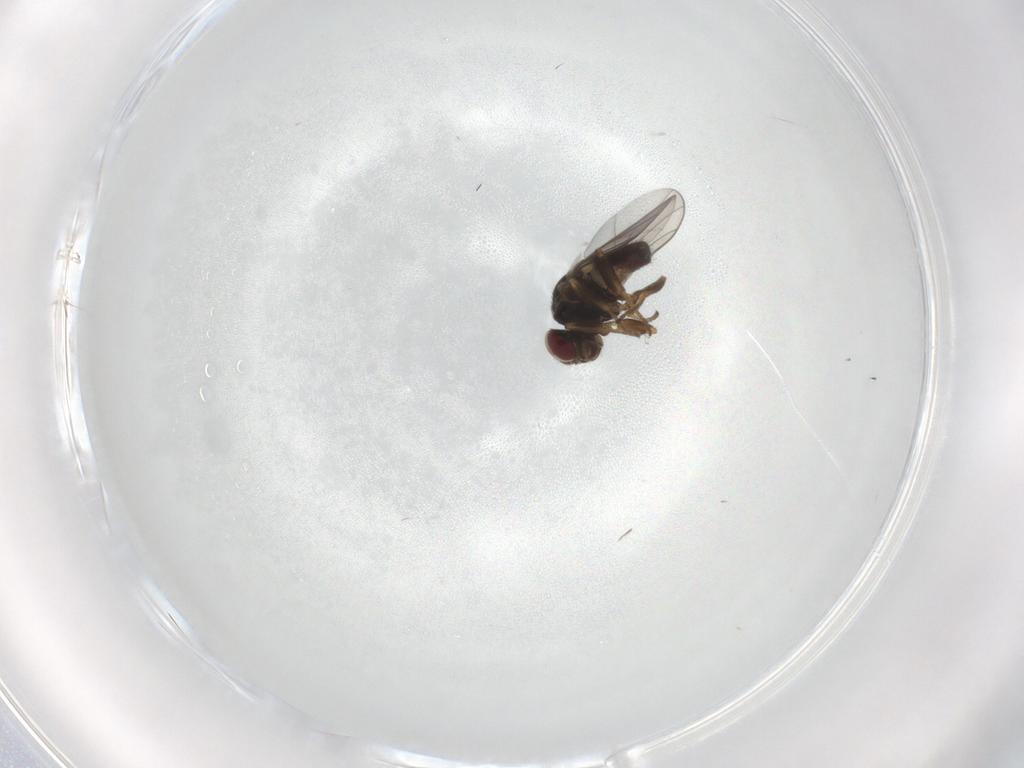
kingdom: Animalia
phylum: Arthropoda
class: Insecta
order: Diptera
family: Chloropidae
